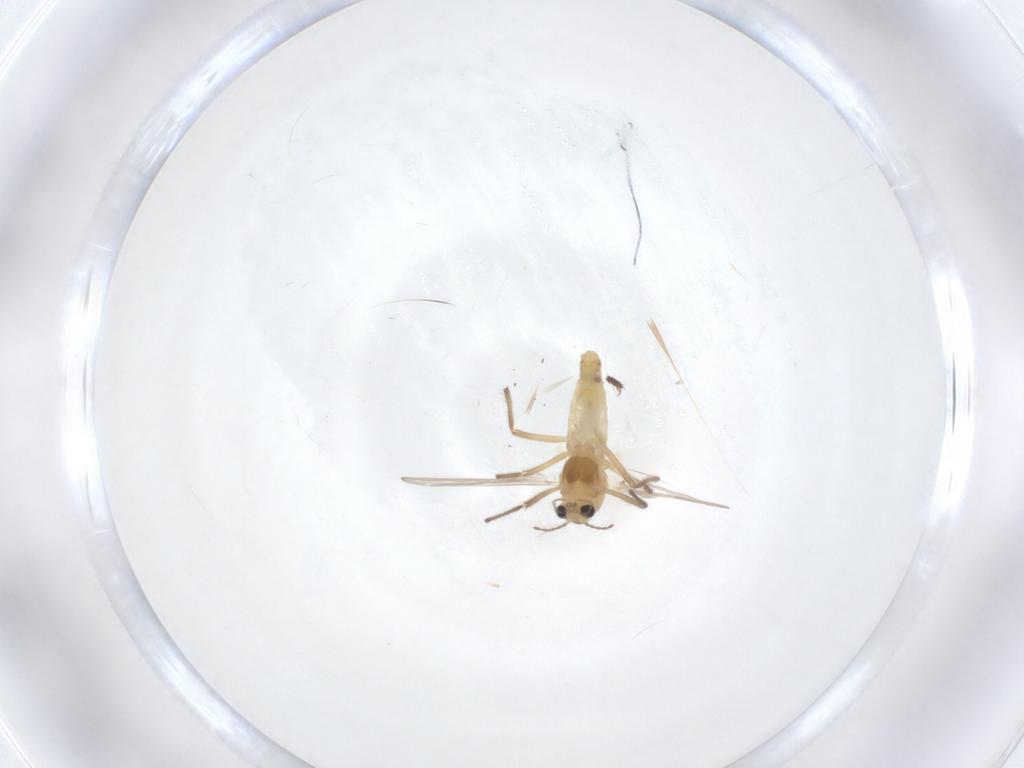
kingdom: Animalia
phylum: Arthropoda
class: Insecta
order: Diptera
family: Chironomidae
